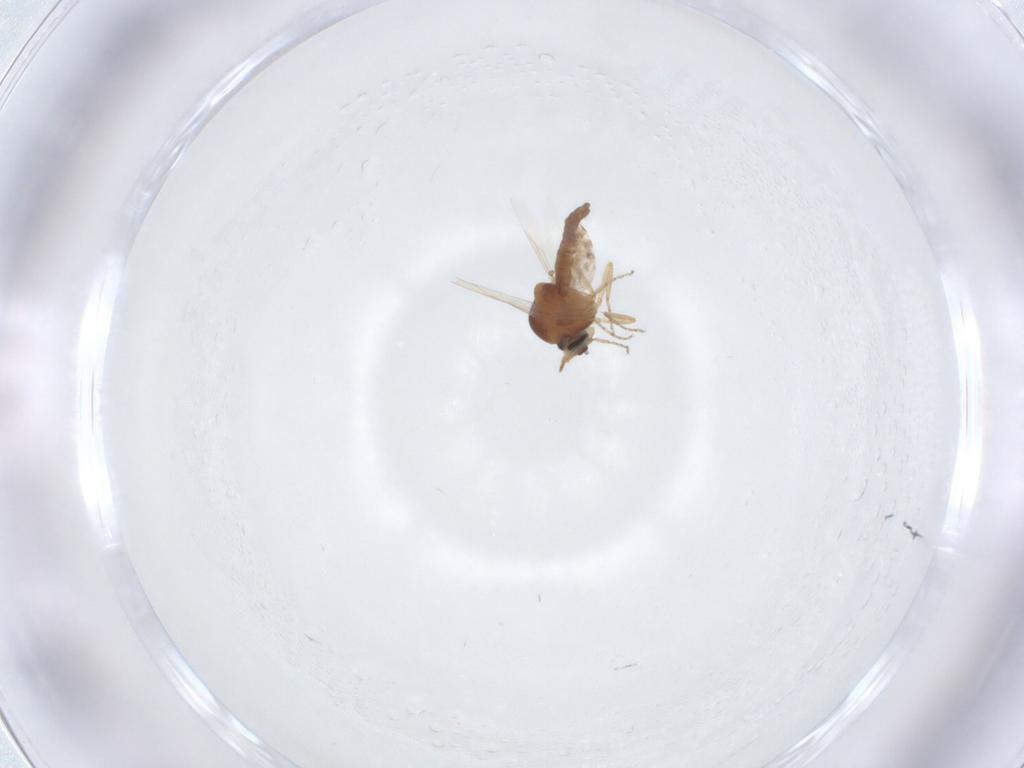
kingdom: Animalia
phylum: Arthropoda
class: Insecta
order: Diptera
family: Ceratopogonidae
